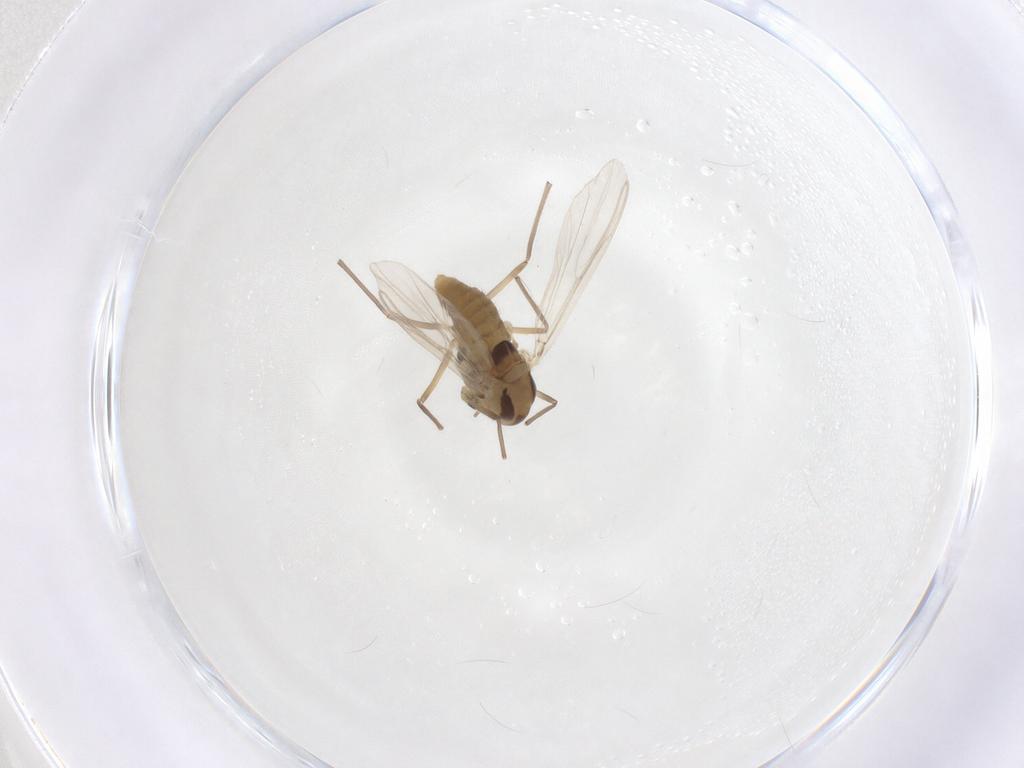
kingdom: Animalia
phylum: Arthropoda
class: Insecta
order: Diptera
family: Chironomidae
